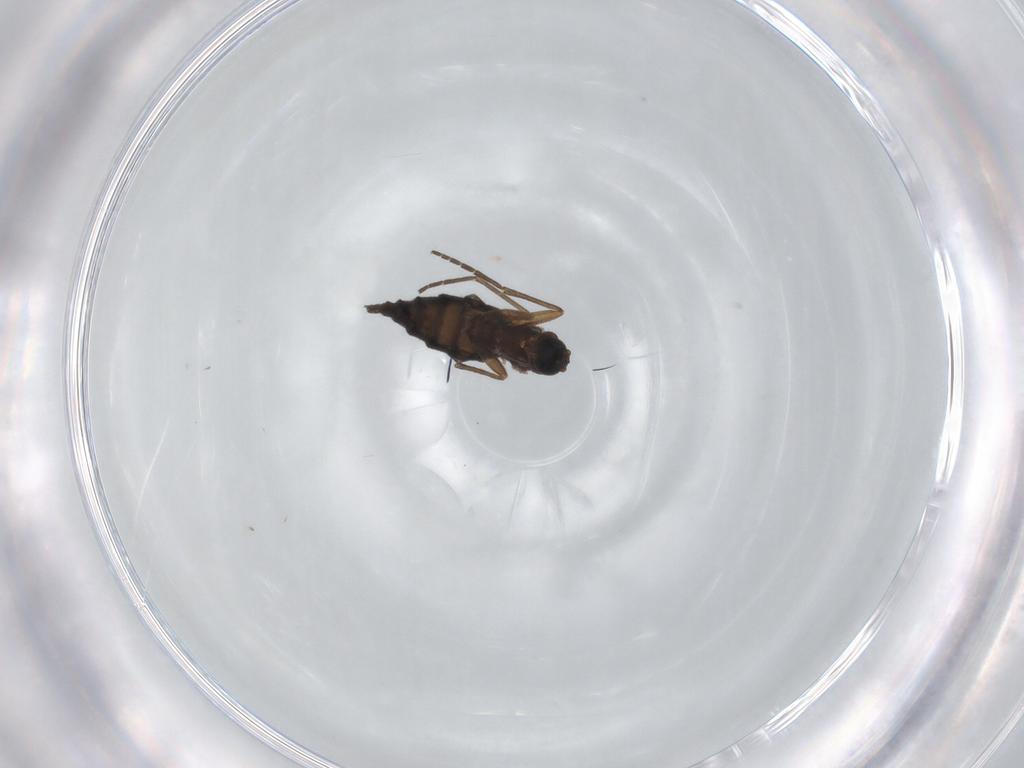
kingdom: Animalia
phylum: Arthropoda
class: Insecta
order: Diptera
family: Sciaridae
